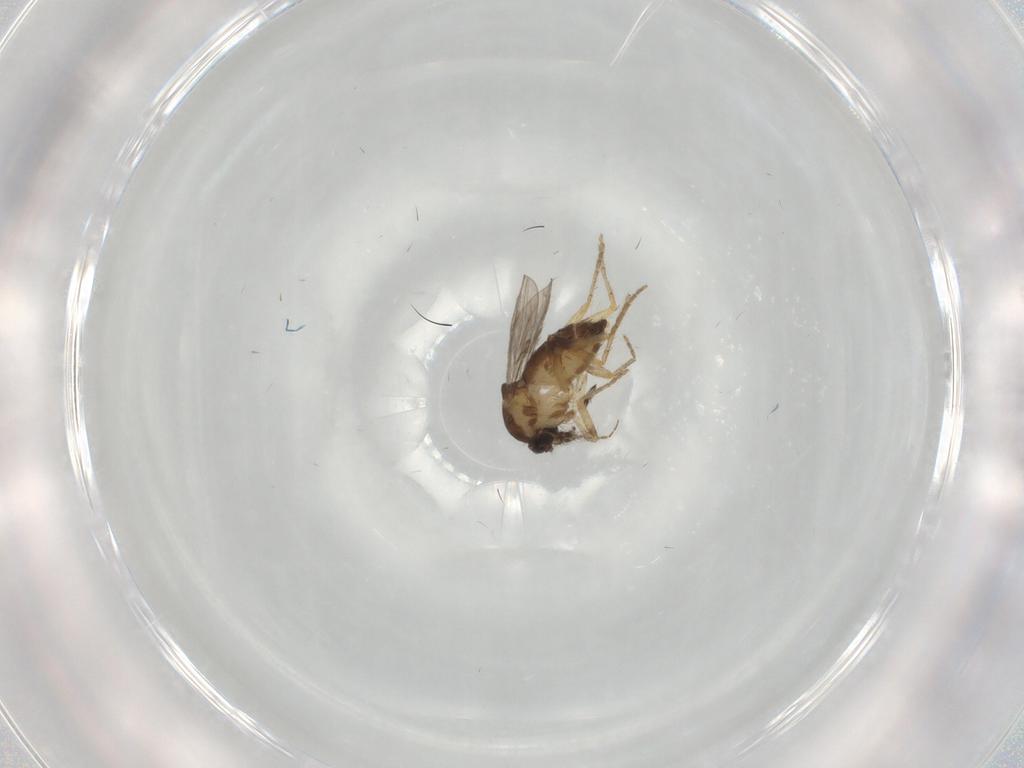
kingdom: Animalia
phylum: Arthropoda
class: Insecta
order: Diptera
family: Ceratopogonidae
